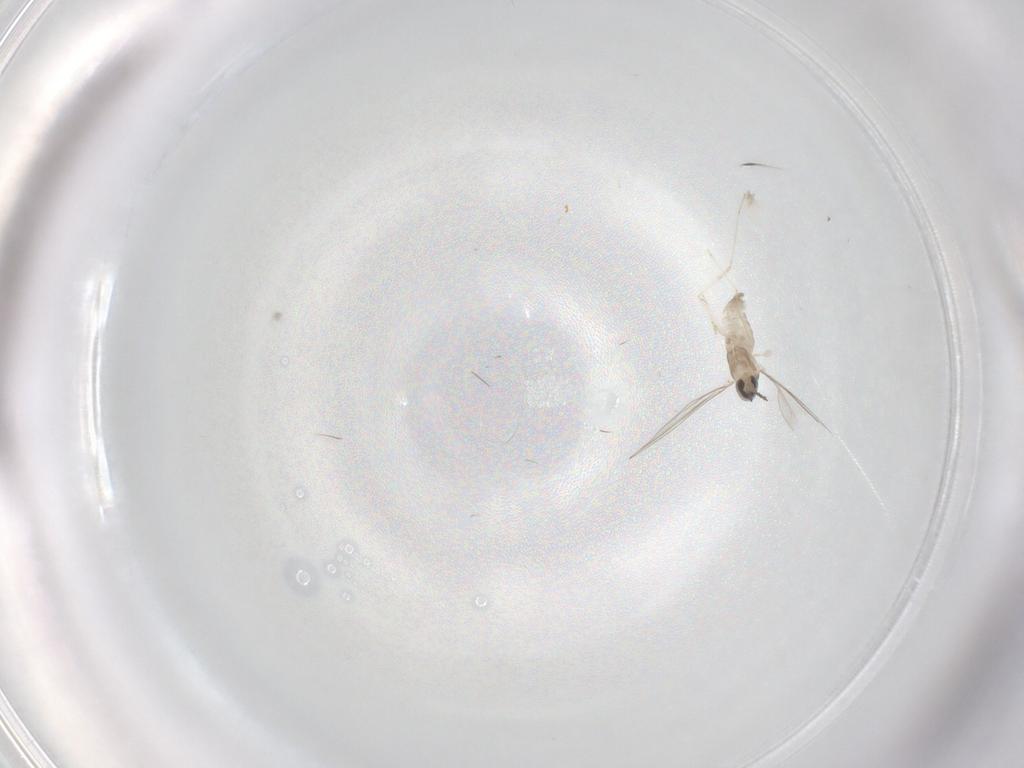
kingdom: Animalia
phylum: Arthropoda
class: Insecta
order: Diptera
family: Cecidomyiidae
